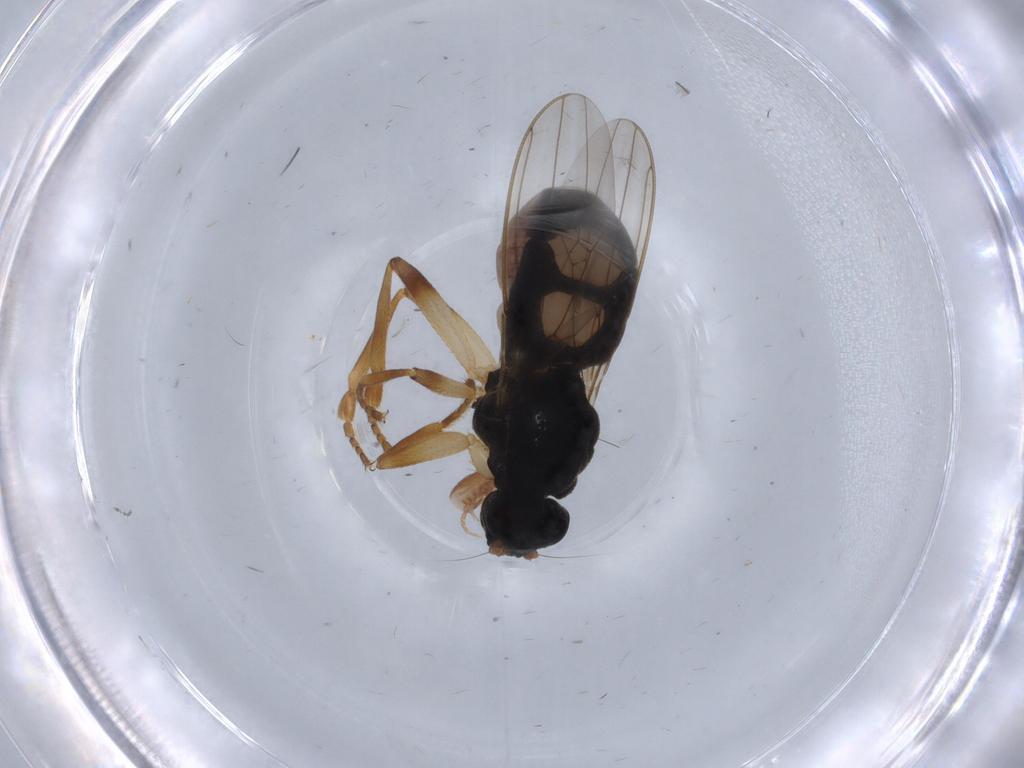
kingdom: Animalia
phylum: Arthropoda
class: Insecta
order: Diptera
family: Sphaeroceridae
